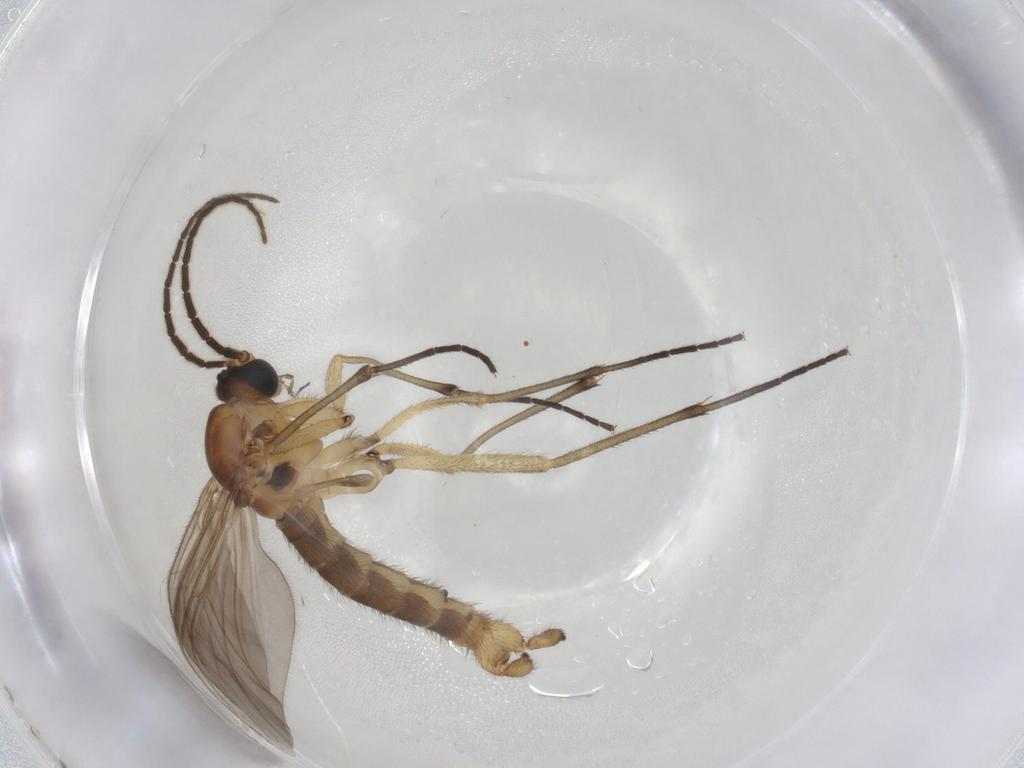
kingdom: Animalia
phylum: Arthropoda
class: Insecta
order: Diptera
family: Sciaridae
